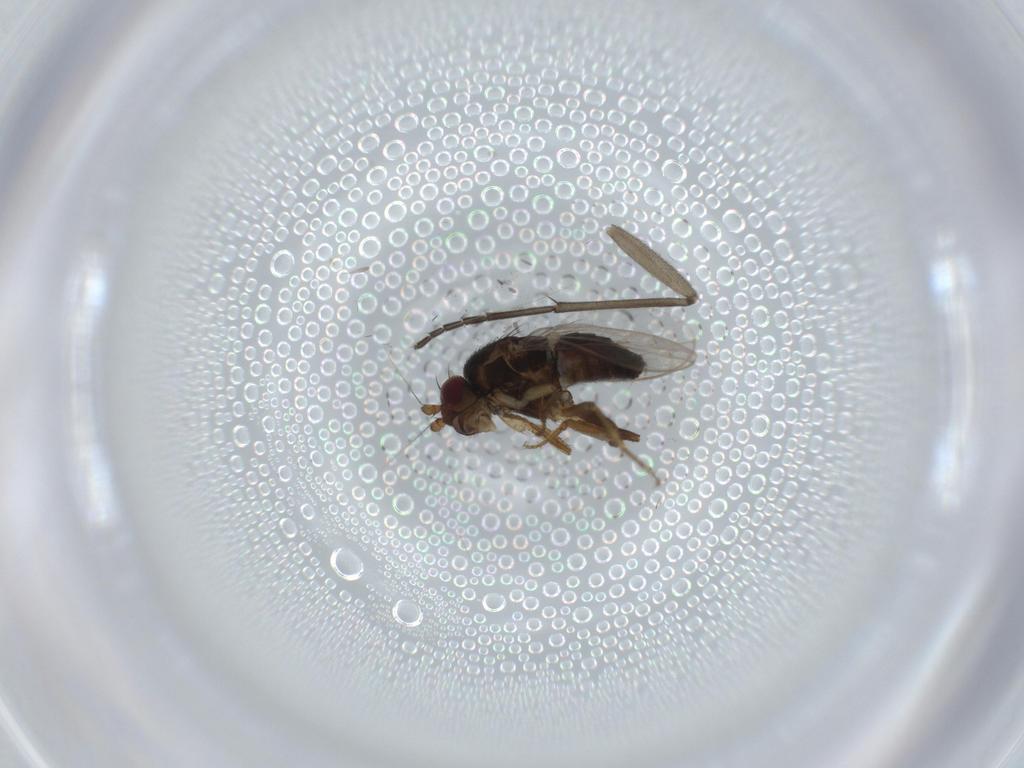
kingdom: Animalia
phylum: Arthropoda
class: Insecta
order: Diptera
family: Sciaridae
